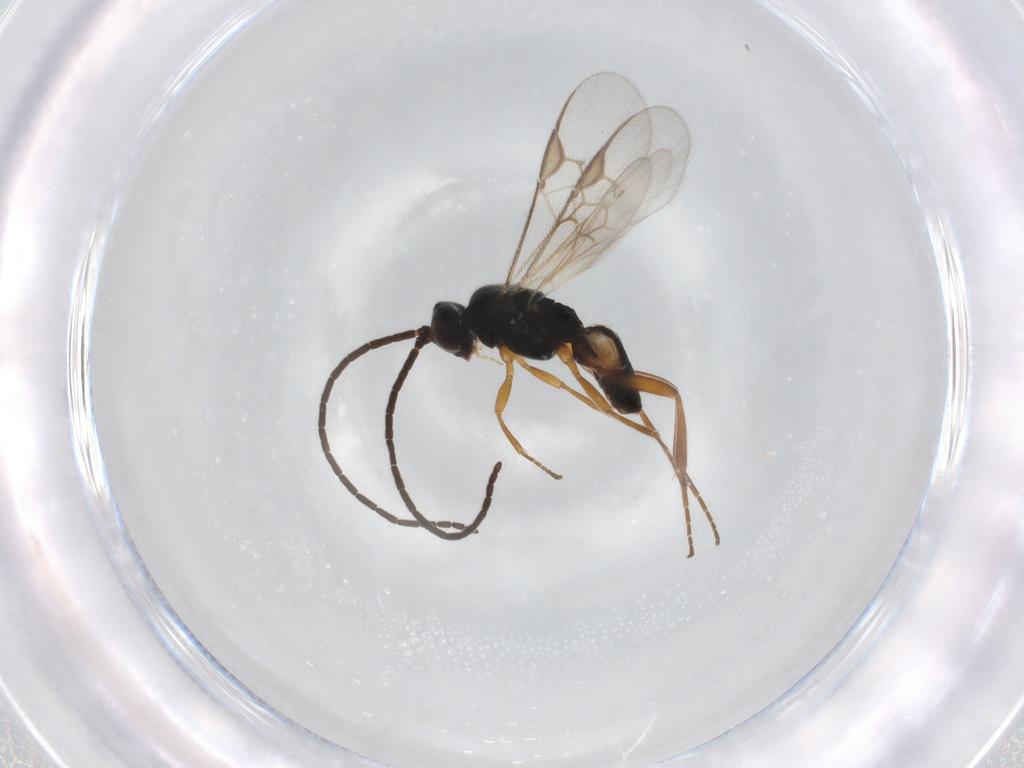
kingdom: Animalia
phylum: Arthropoda
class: Insecta
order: Hymenoptera
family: Braconidae
